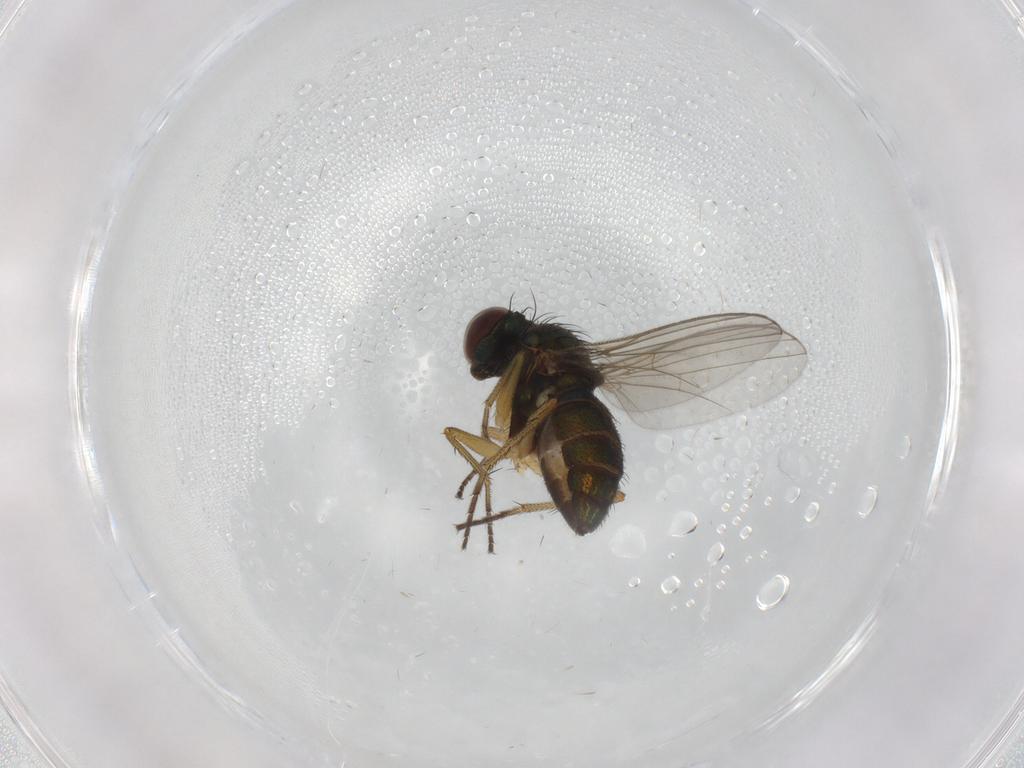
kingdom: Animalia
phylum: Arthropoda
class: Insecta
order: Diptera
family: Dolichopodidae
